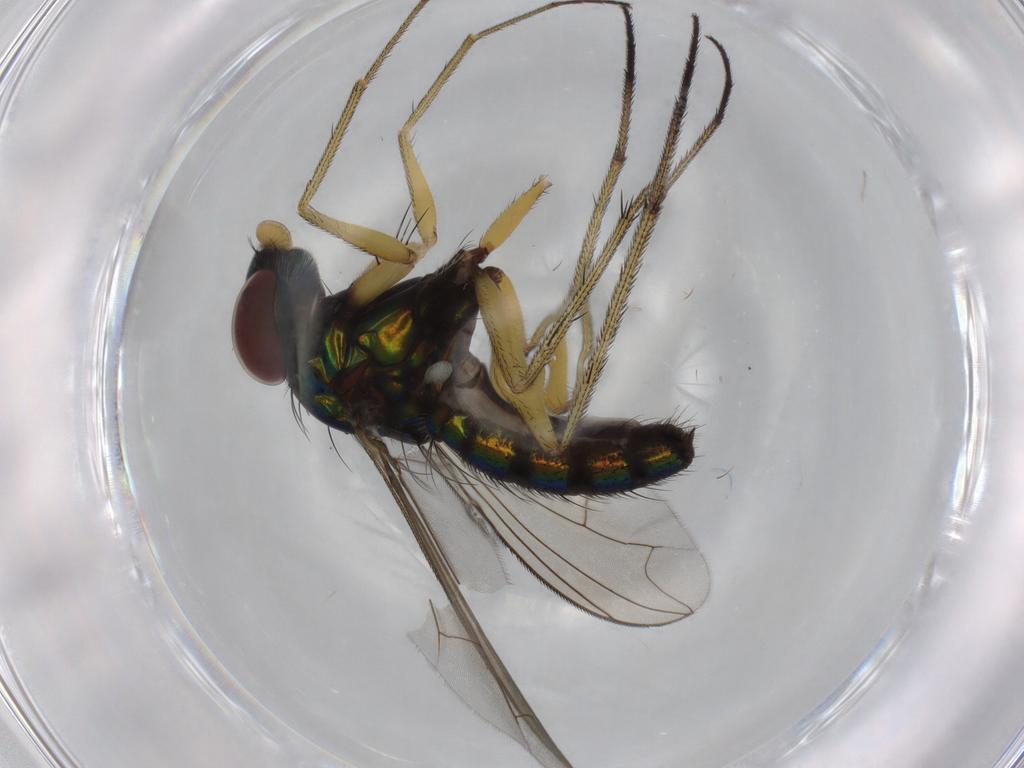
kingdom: Animalia
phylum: Arthropoda
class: Insecta
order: Diptera
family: Dolichopodidae
